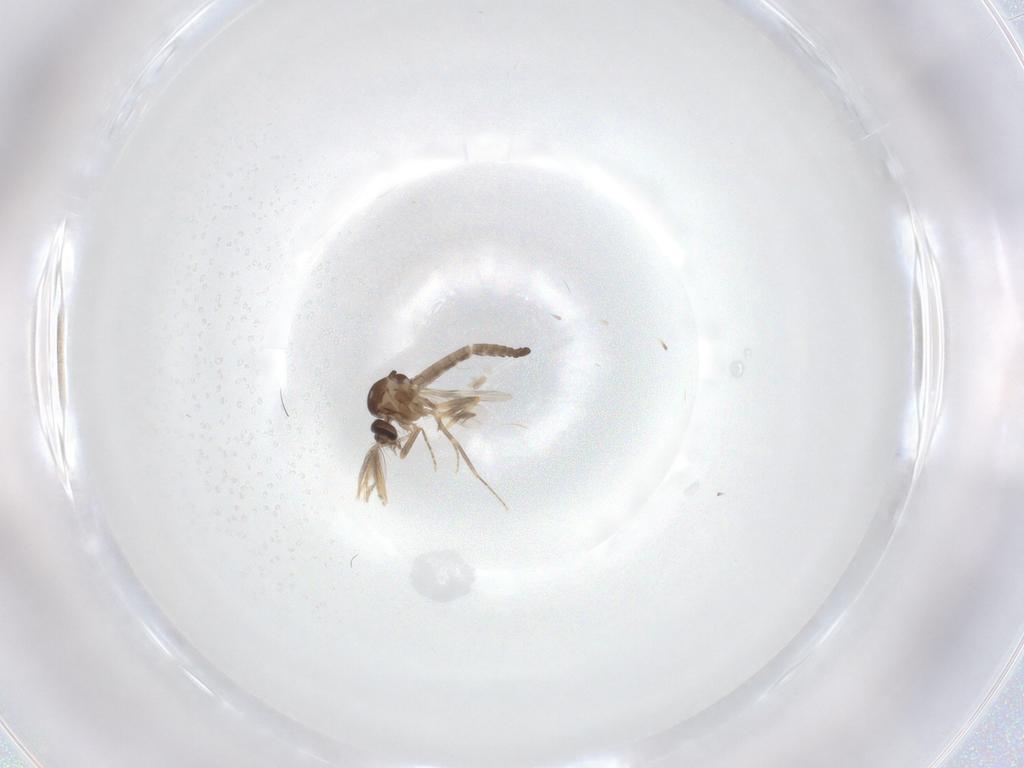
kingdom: Animalia
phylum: Arthropoda
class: Insecta
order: Diptera
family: Ceratopogonidae
